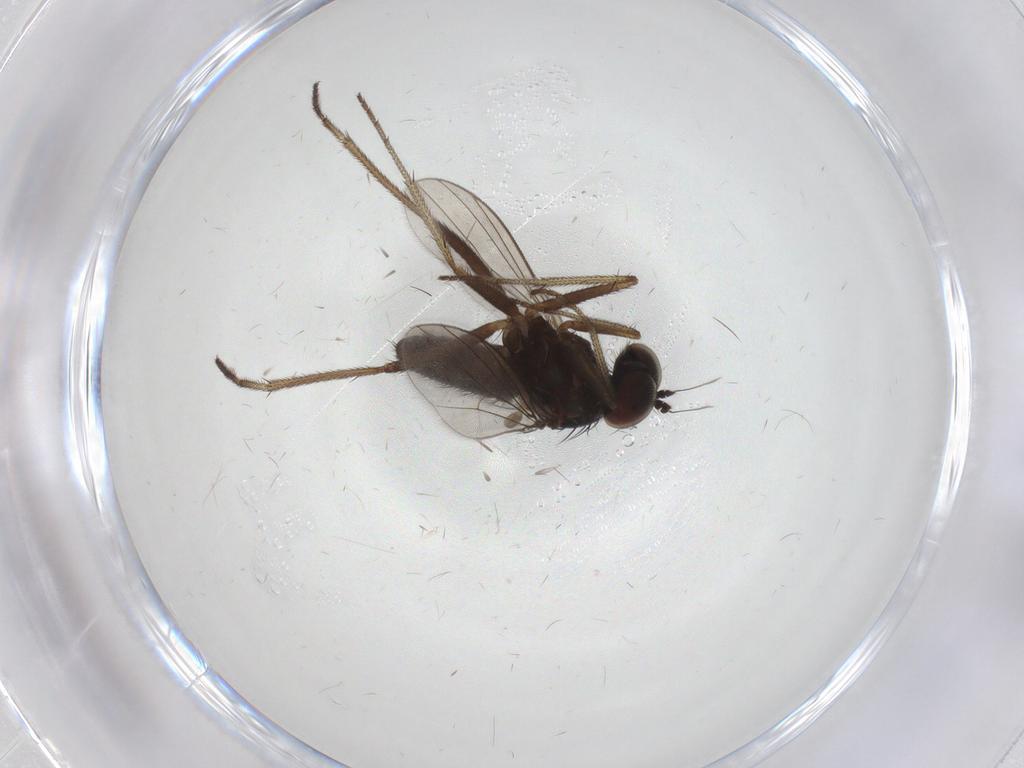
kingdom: Animalia
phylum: Arthropoda
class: Insecta
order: Diptera
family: Dolichopodidae
